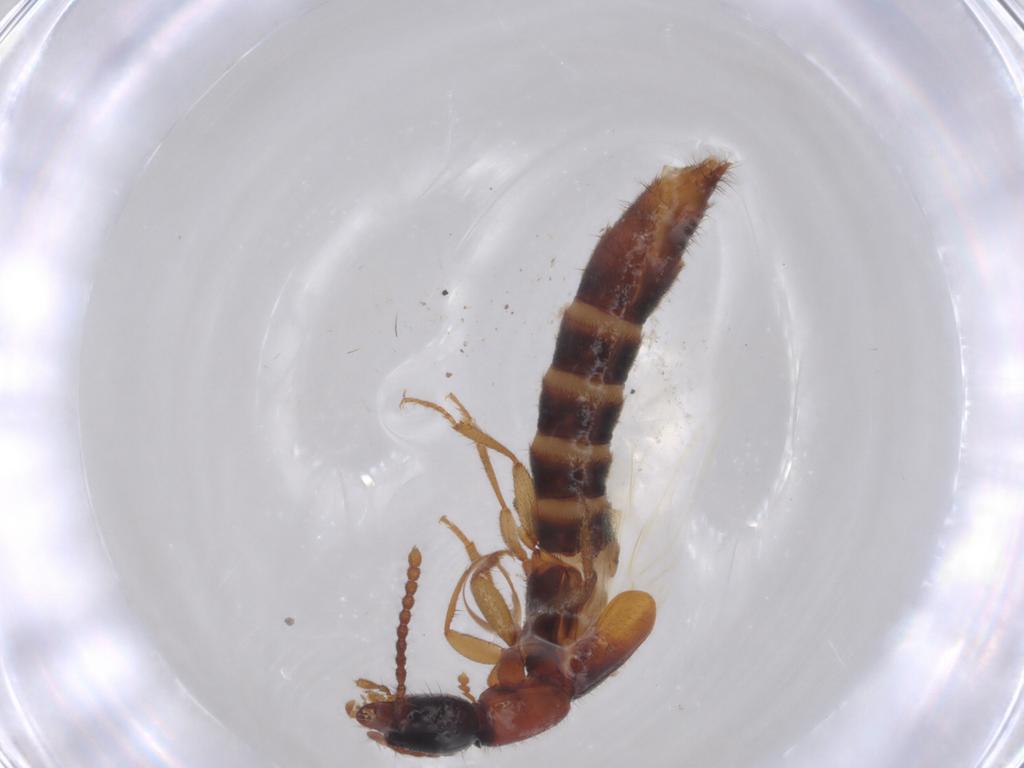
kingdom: Animalia
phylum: Arthropoda
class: Insecta
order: Coleoptera
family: Staphylinidae
